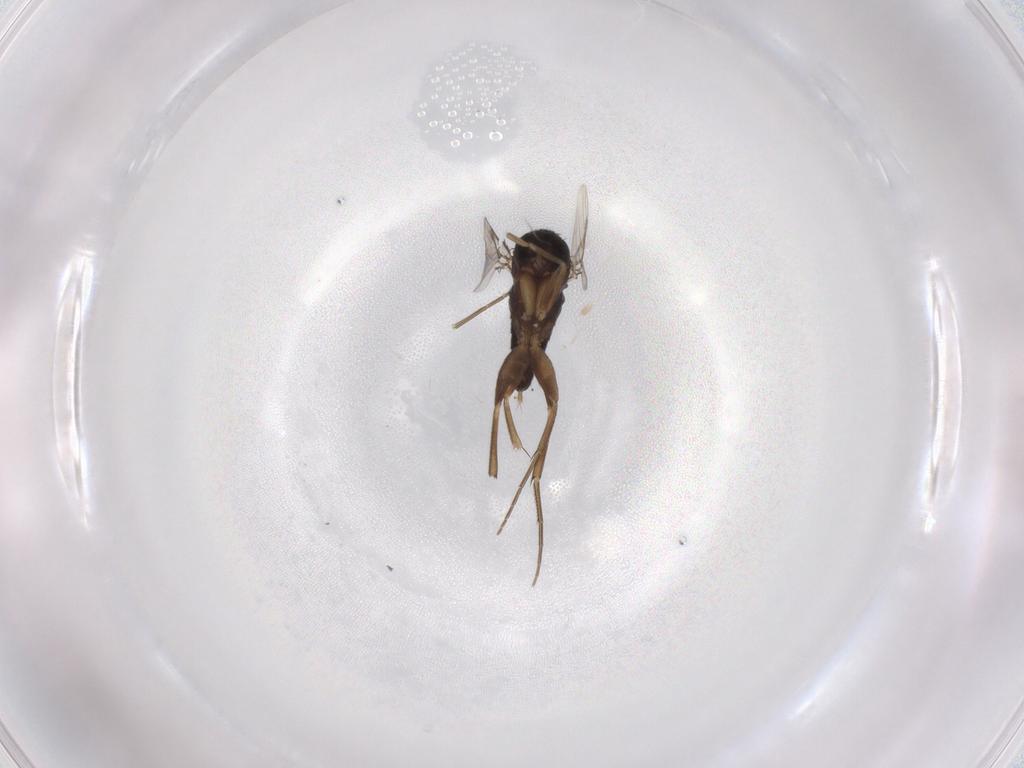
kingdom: Animalia
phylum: Arthropoda
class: Insecta
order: Diptera
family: Phoridae
